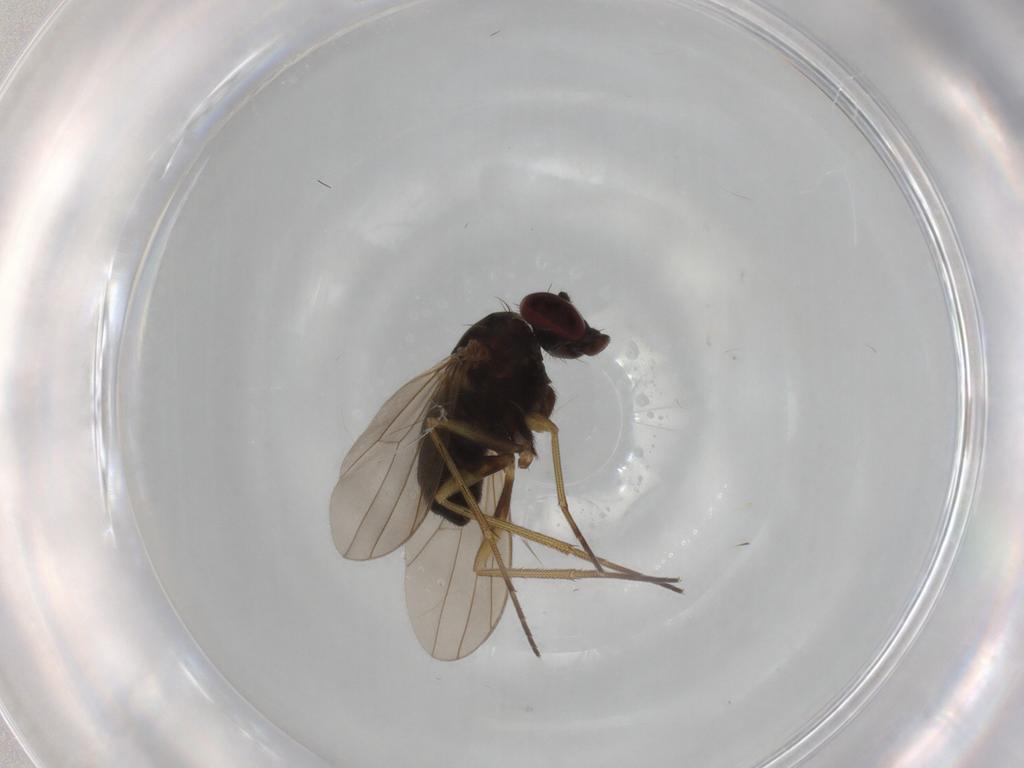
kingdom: Animalia
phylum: Arthropoda
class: Insecta
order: Diptera
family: Calliphoridae
